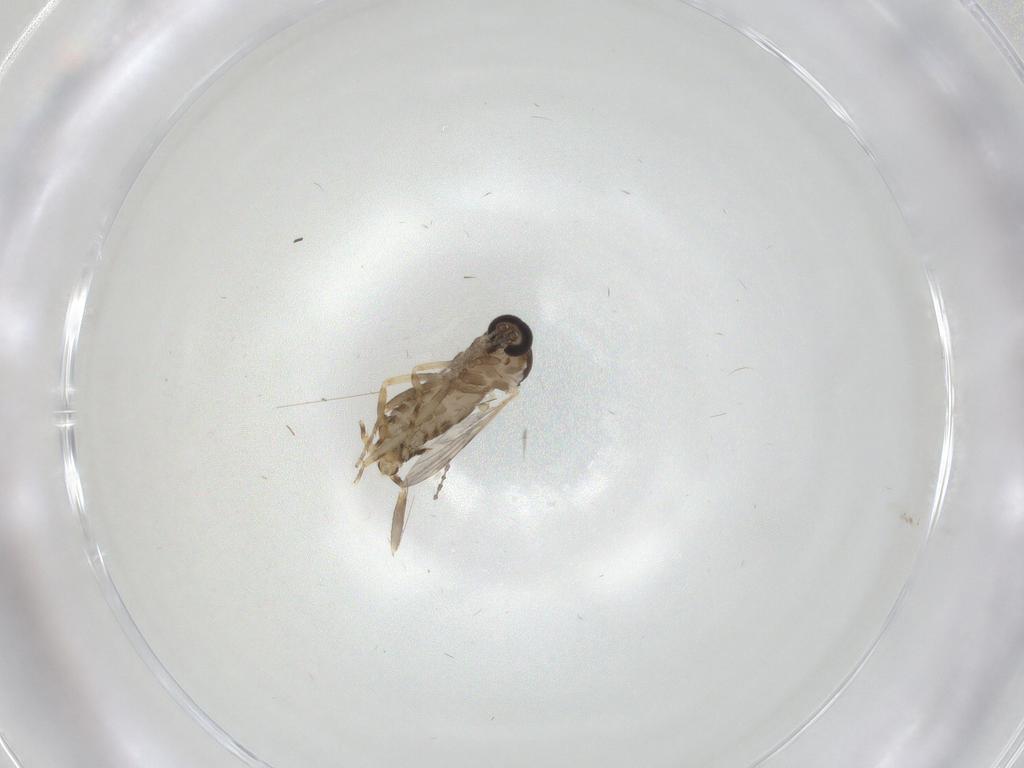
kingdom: Animalia
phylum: Arthropoda
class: Insecta
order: Diptera
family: Ceratopogonidae
